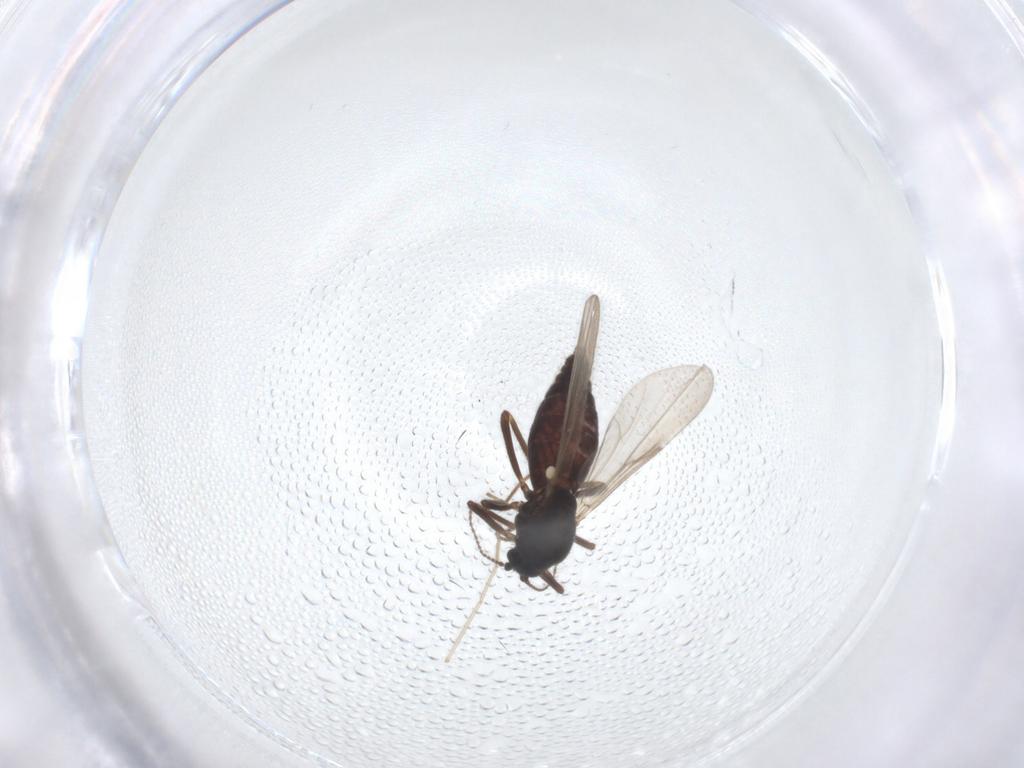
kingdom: Animalia
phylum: Arthropoda
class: Insecta
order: Diptera
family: Ceratopogonidae
